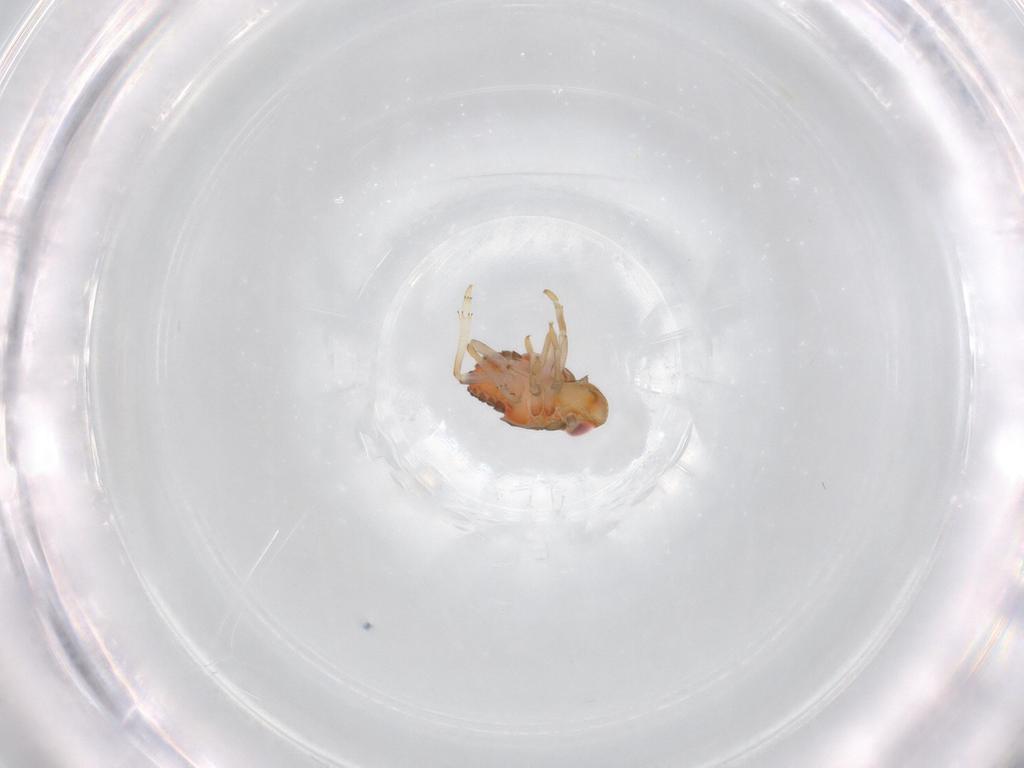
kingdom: Animalia
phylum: Arthropoda
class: Insecta
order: Hemiptera
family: Issidae
